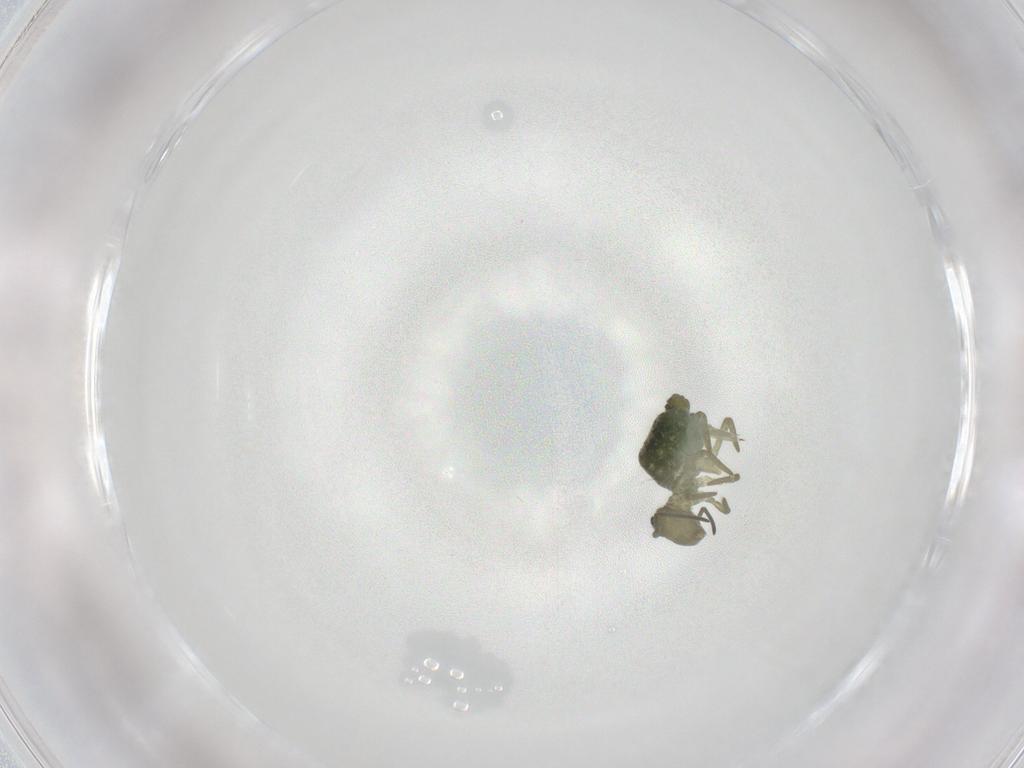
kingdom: Animalia
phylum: Arthropoda
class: Collembola
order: Symphypleona
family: Sminthuridae
